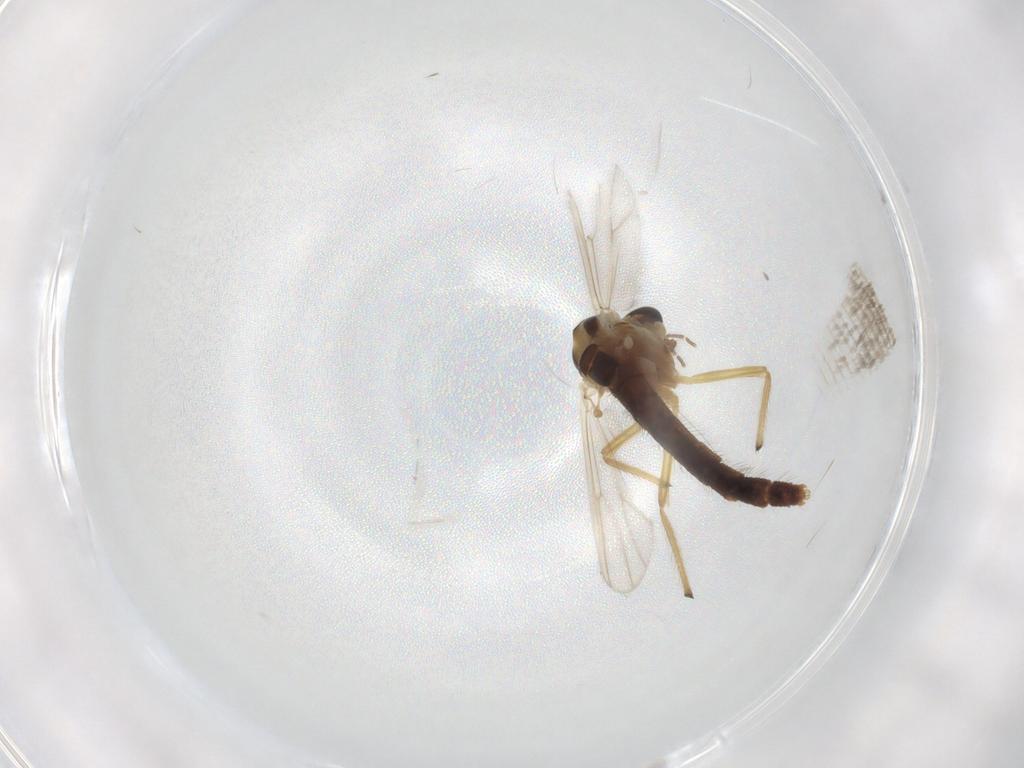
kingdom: Animalia
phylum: Arthropoda
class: Insecta
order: Diptera
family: Chironomidae
